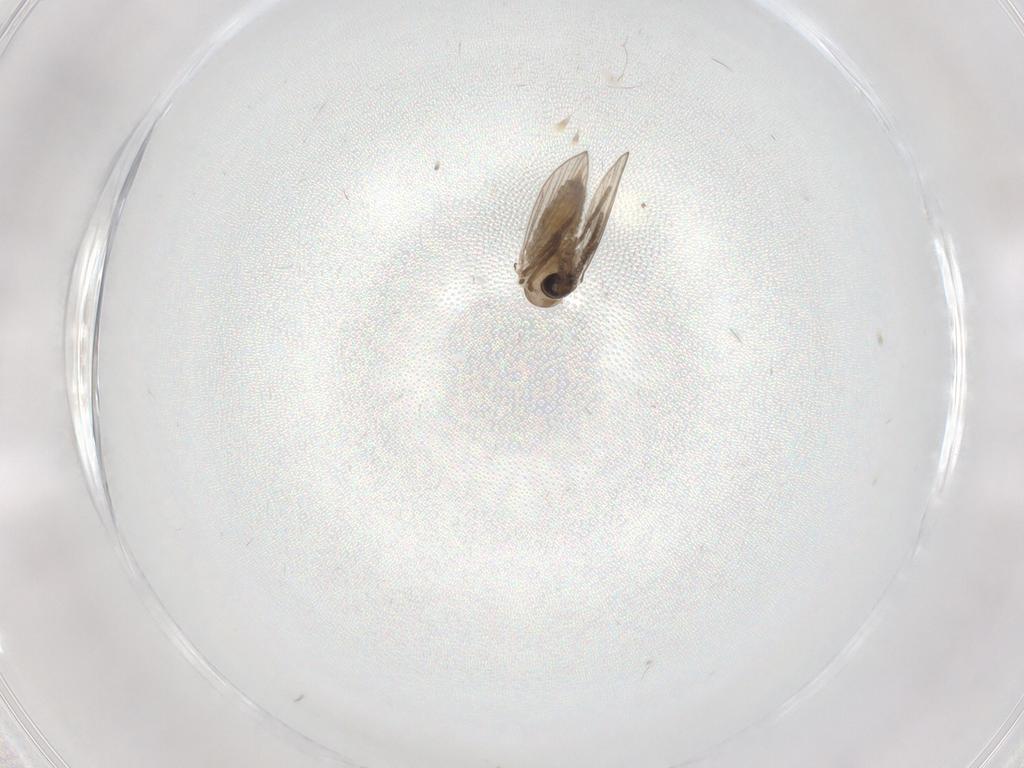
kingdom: Animalia
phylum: Arthropoda
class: Insecta
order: Diptera
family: Psychodidae
